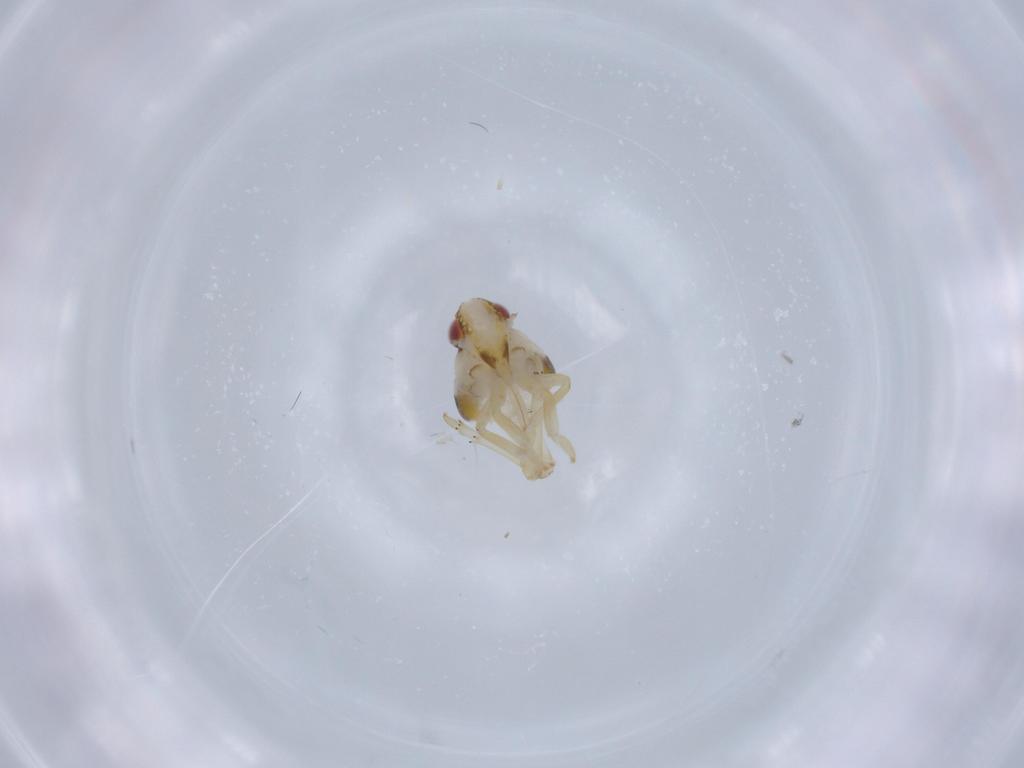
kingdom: Animalia
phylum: Arthropoda
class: Insecta
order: Hemiptera
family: Issidae
